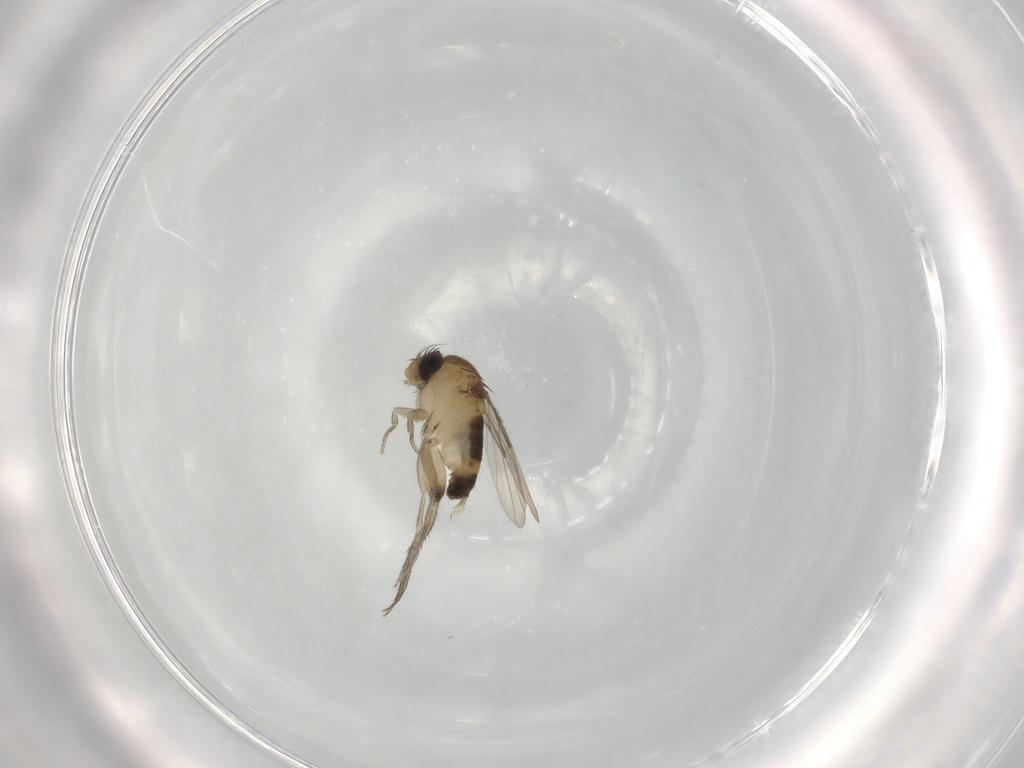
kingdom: Animalia
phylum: Arthropoda
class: Insecta
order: Diptera
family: Phoridae
